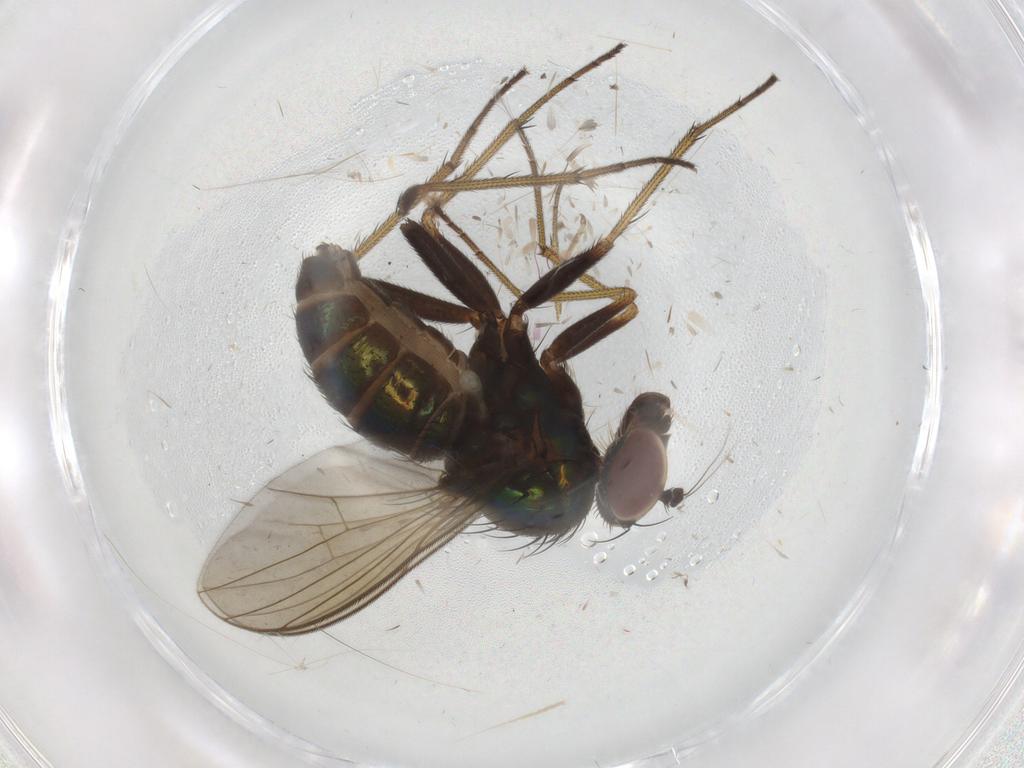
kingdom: Animalia
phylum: Arthropoda
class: Insecta
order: Diptera
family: Dolichopodidae
